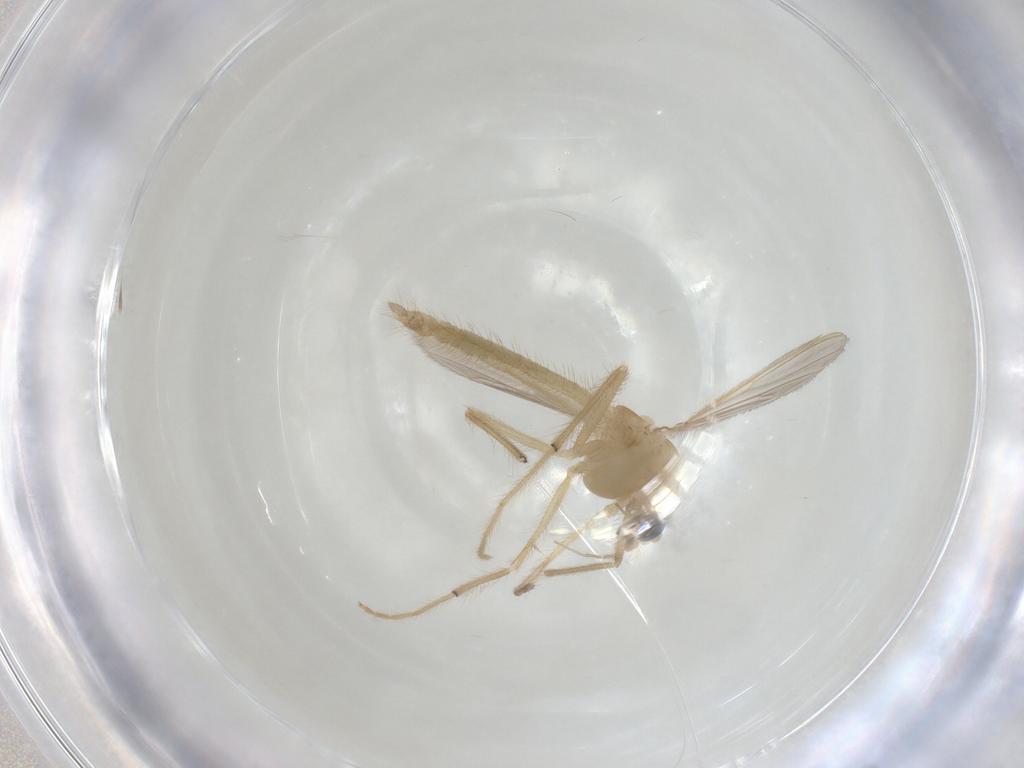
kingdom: Animalia
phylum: Arthropoda
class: Insecta
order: Diptera
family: Chironomidae
